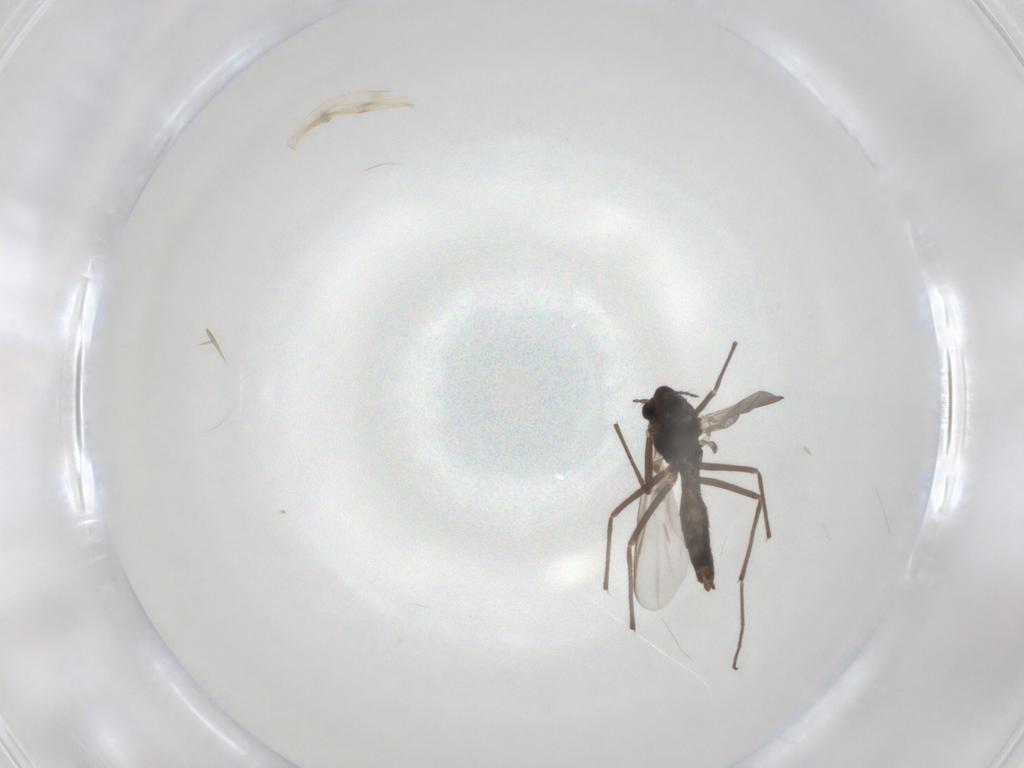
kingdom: Animalia
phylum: Arthropoda
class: Insecta
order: Diptera
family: Chironomidae
